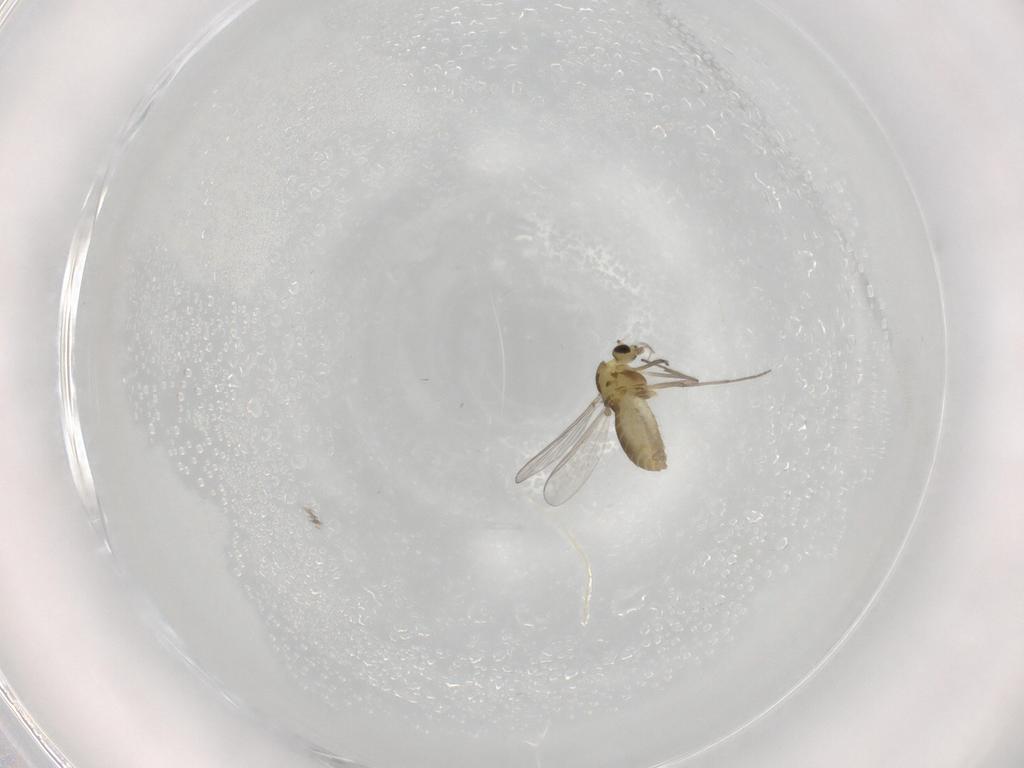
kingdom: Animalia
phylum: Arthropoda
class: Insecta
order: Diptera
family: Chironomidae
